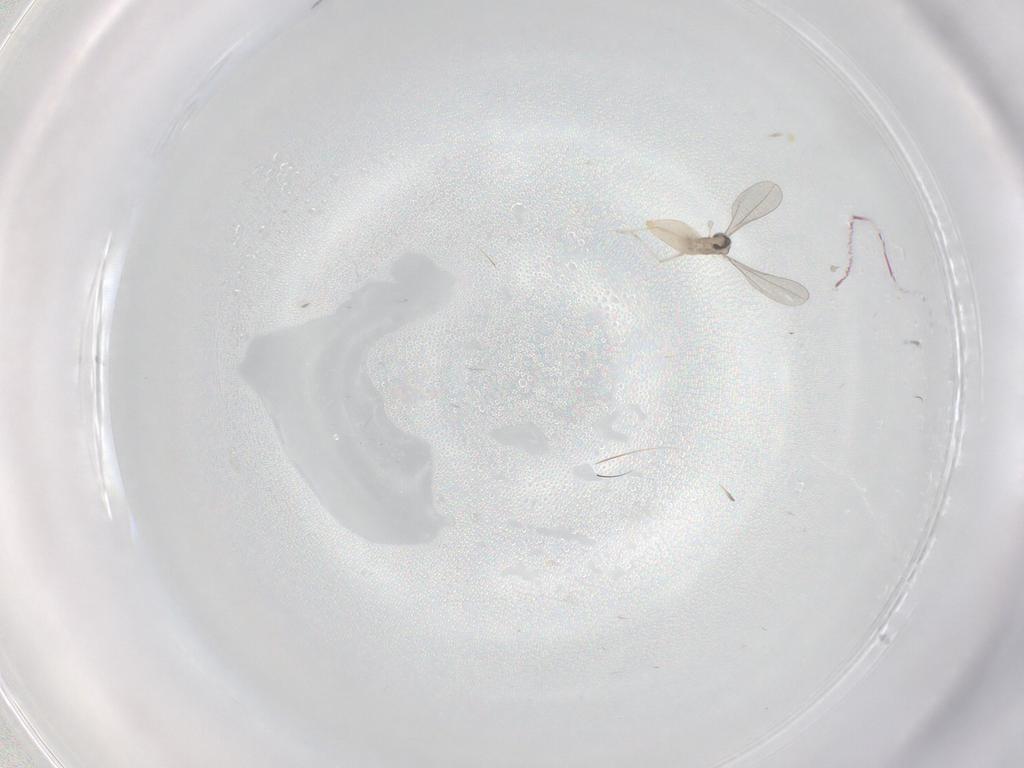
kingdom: Animalia
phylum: Arthropoda
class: Insecta
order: Diptera
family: Cecidomyiidae
